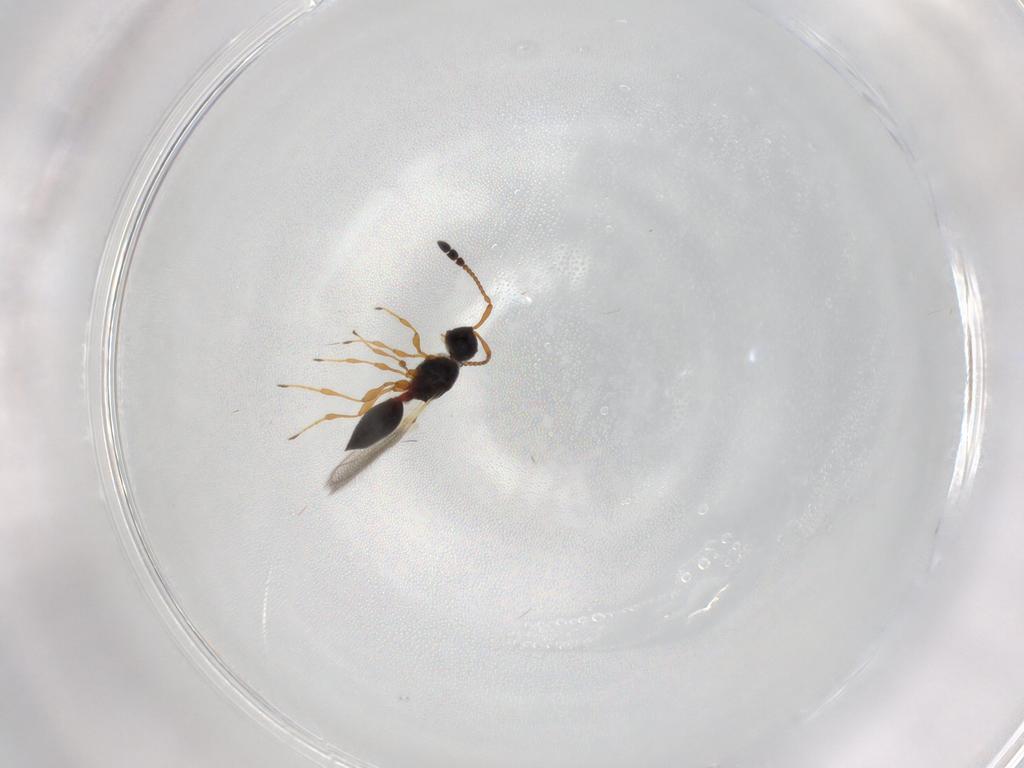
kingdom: Animalia
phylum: Arthropoda
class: Insecta
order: Hymenoptera
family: Diapriidae
